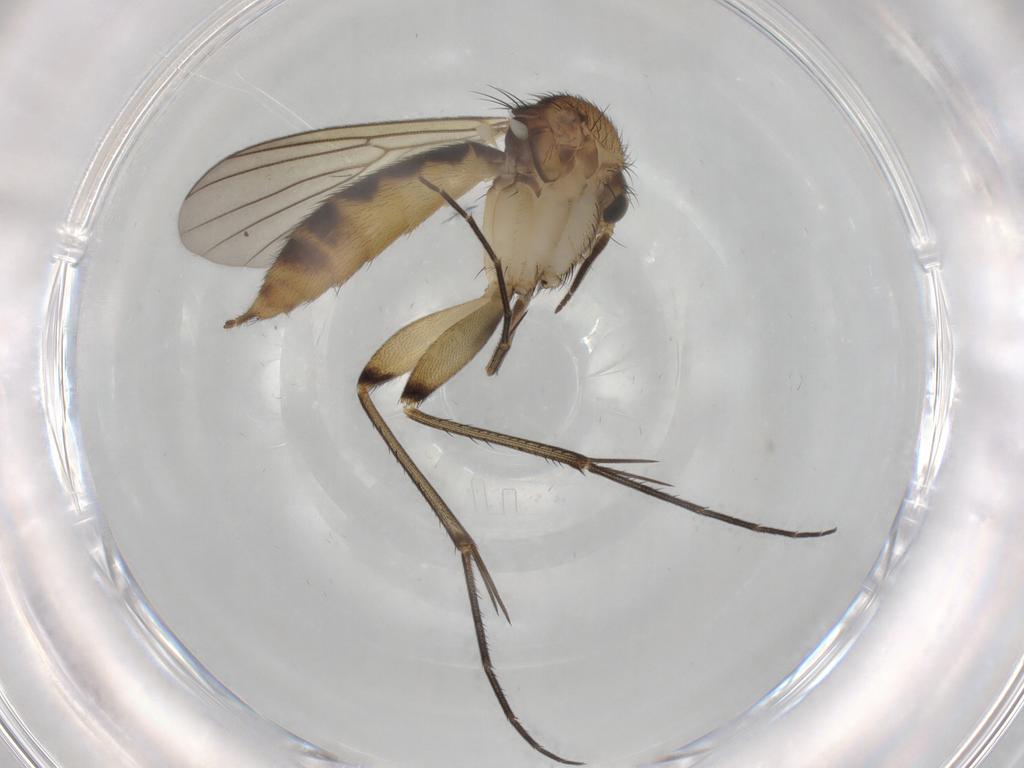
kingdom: Animalia
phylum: Arthropoda
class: Insecta
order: Diptera
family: Mycetophilidae
